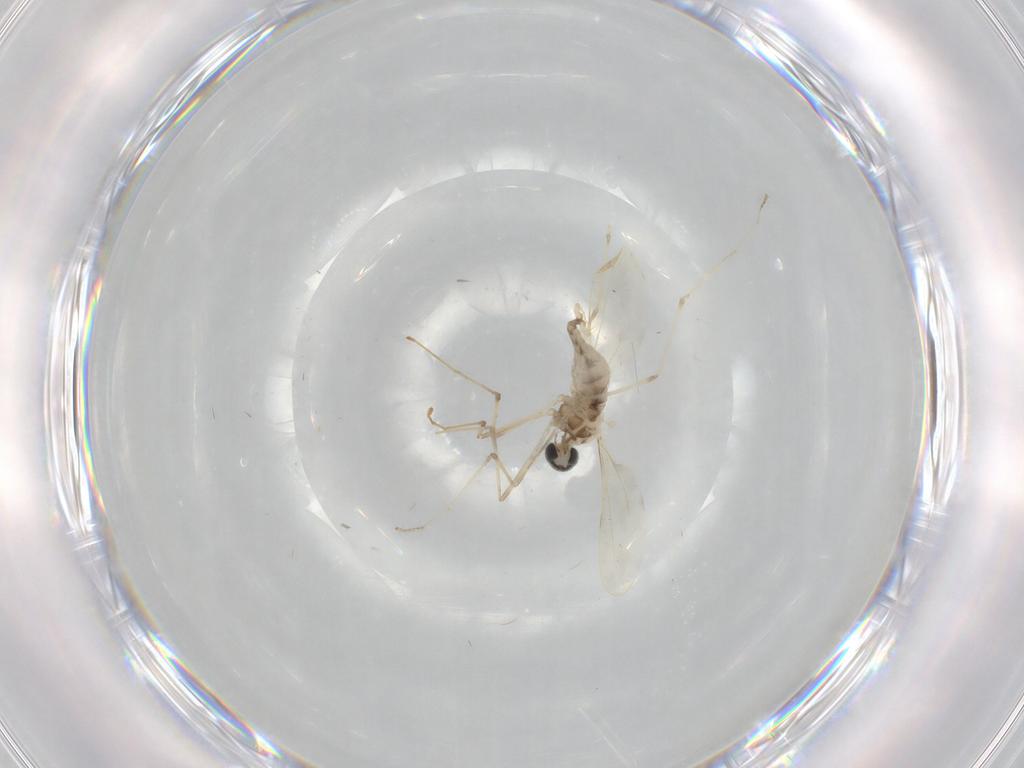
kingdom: Animalia
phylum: Arthropoda
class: Insecta
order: Diptera
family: Cecidomyiidae
